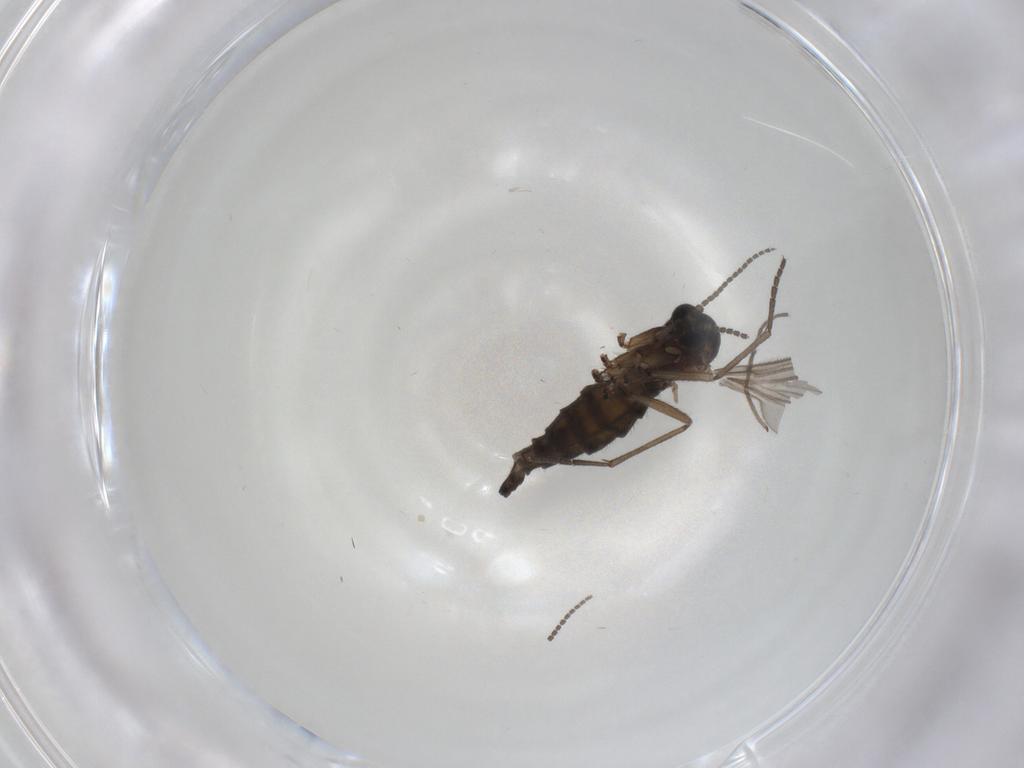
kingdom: Animalia
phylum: Arthropoda
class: Insecta
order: Diptera
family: Sciaridae
